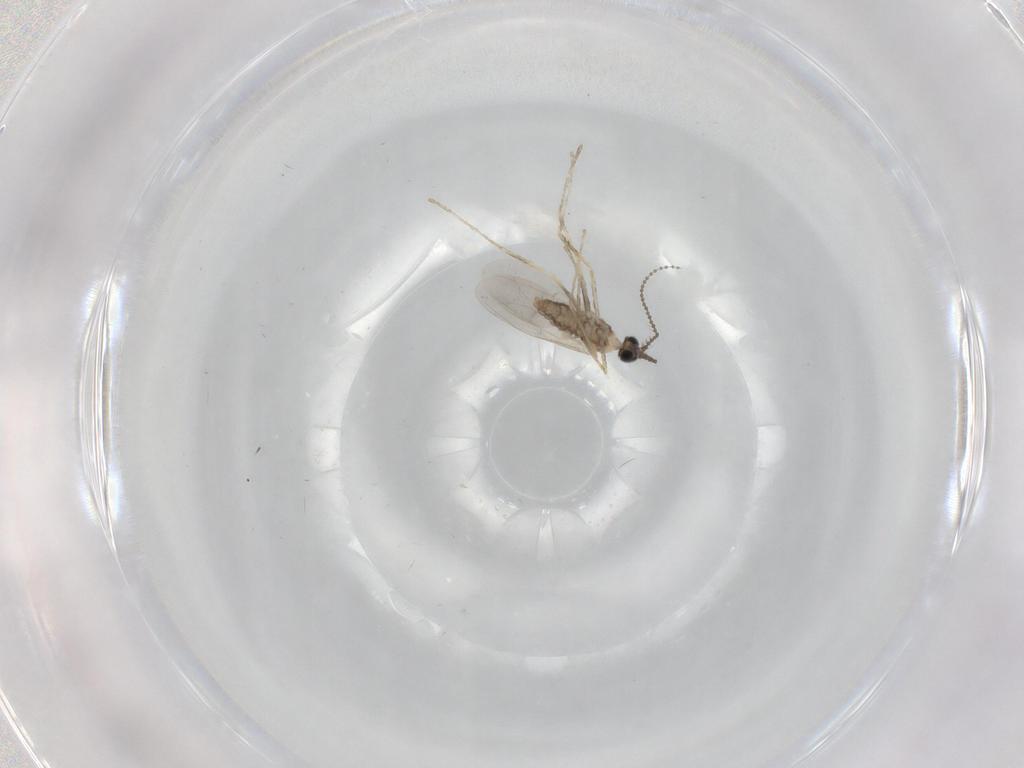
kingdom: Animalia
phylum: Arthropoda
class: Insecta
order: Diptera
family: Cecidomyiidae
